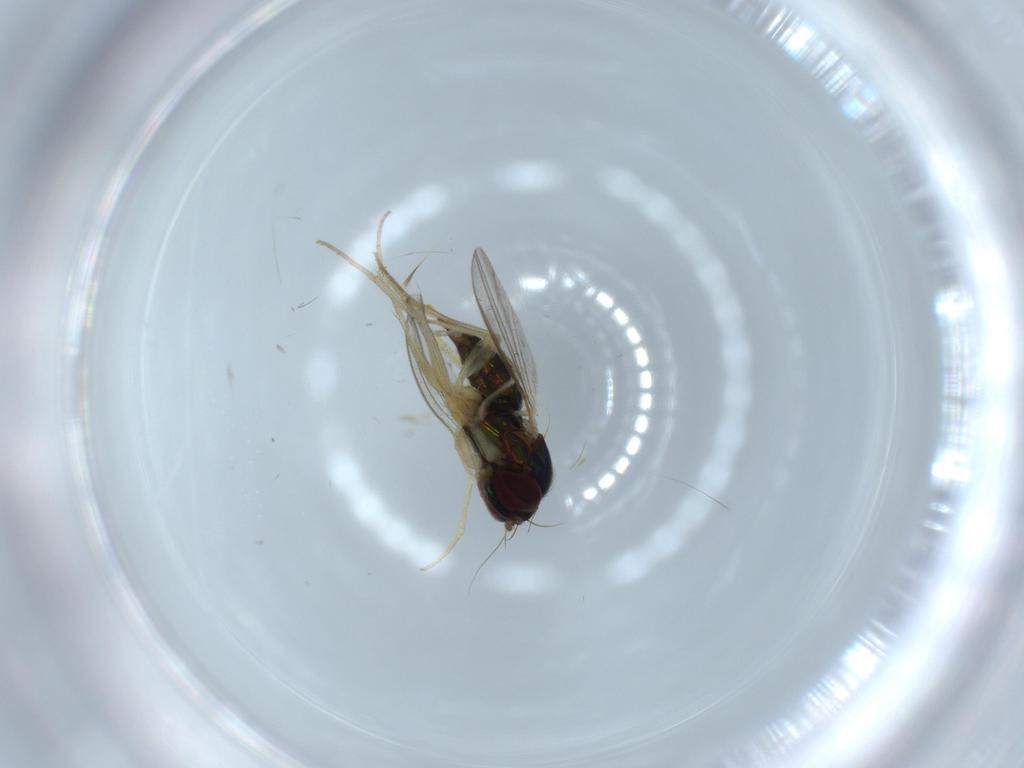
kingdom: Animalia
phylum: Arthropoda
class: Insecta
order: Diptera
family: Dolichopodidae
